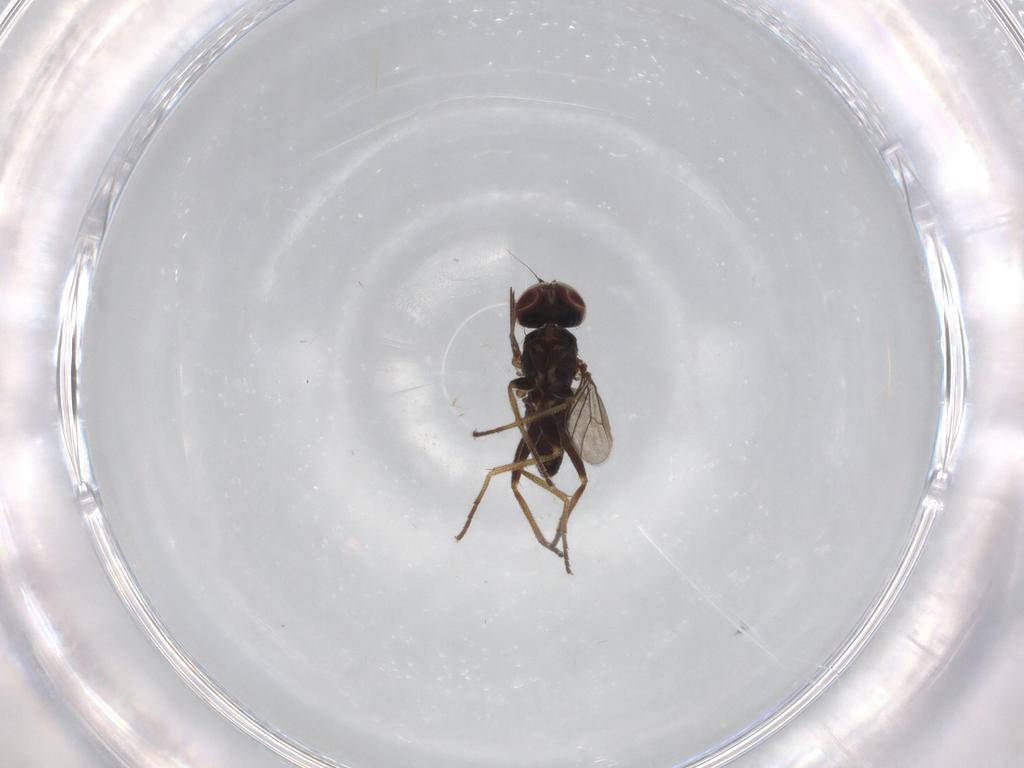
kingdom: Animalia
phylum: Arthropoda
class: Insecta
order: Diptera
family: Dolichopodidae
